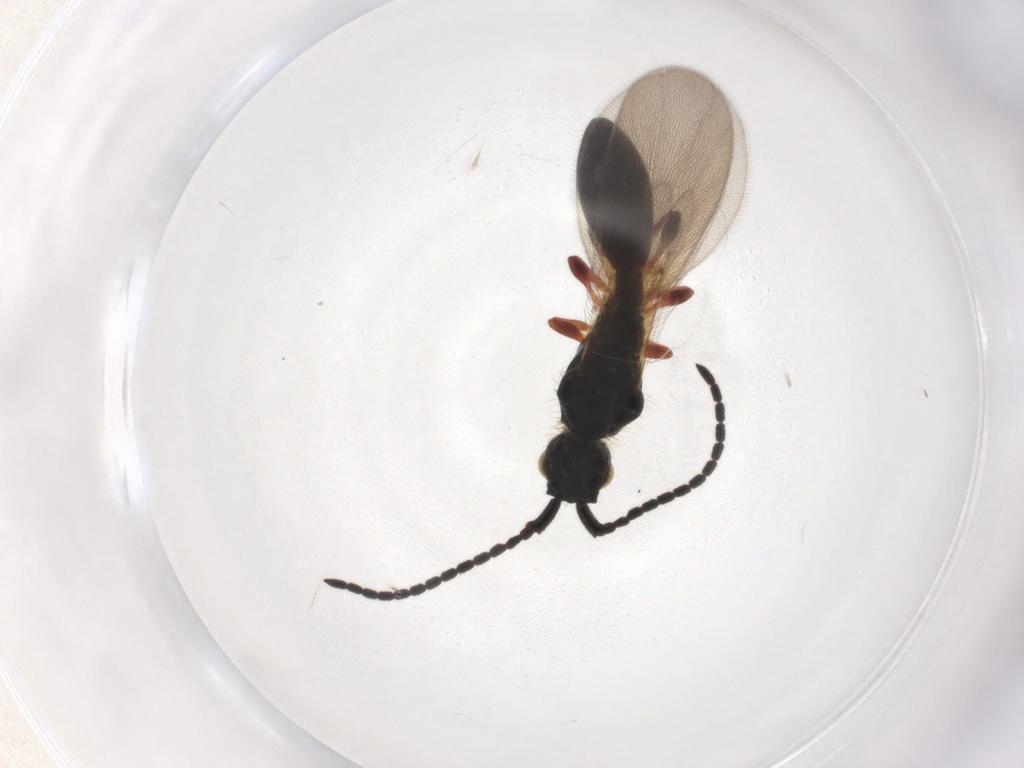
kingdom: Animalia
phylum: Arthropoda
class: Insecta
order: Hymenoptera
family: Diapriidae
